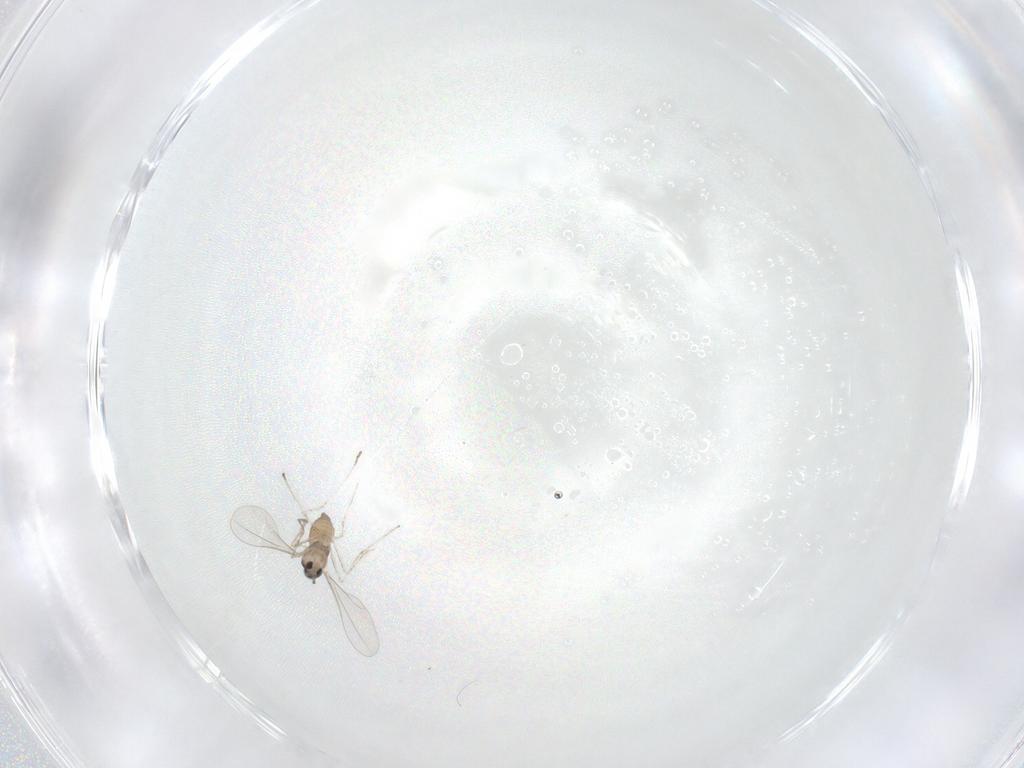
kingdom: Animalia
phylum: Arthropoda
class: Insecta
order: Diptera
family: Cecidomyiidae
